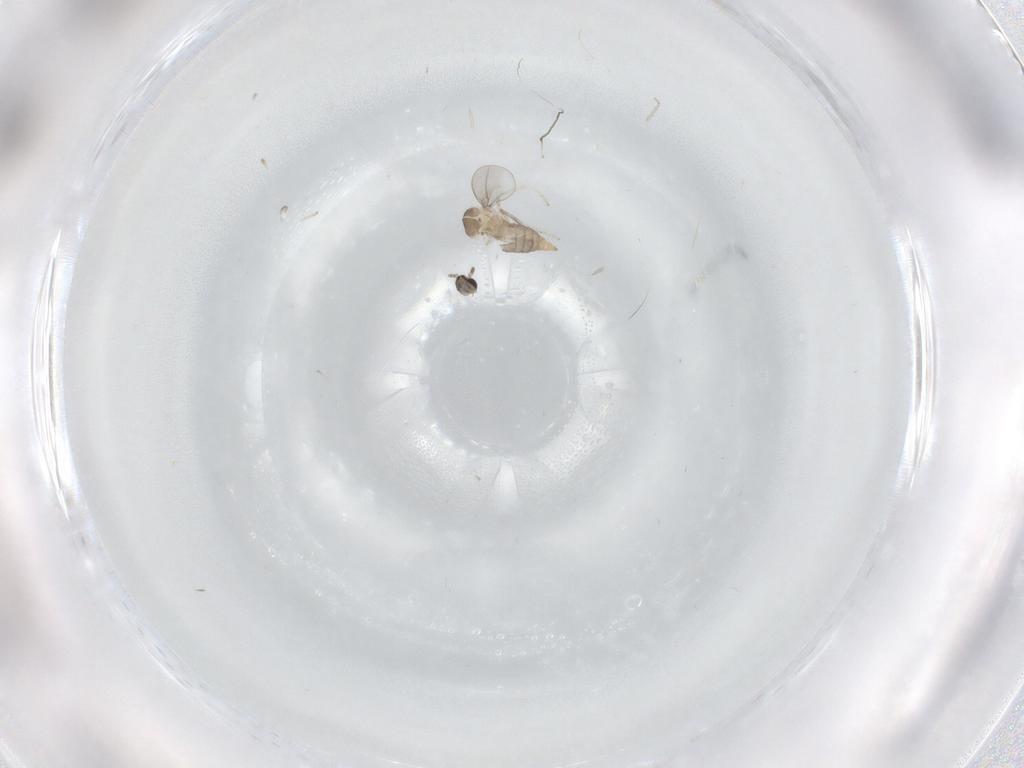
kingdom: Animalia
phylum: Arthropoda
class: Insecta
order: Diptera
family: Cecidomyiidae
